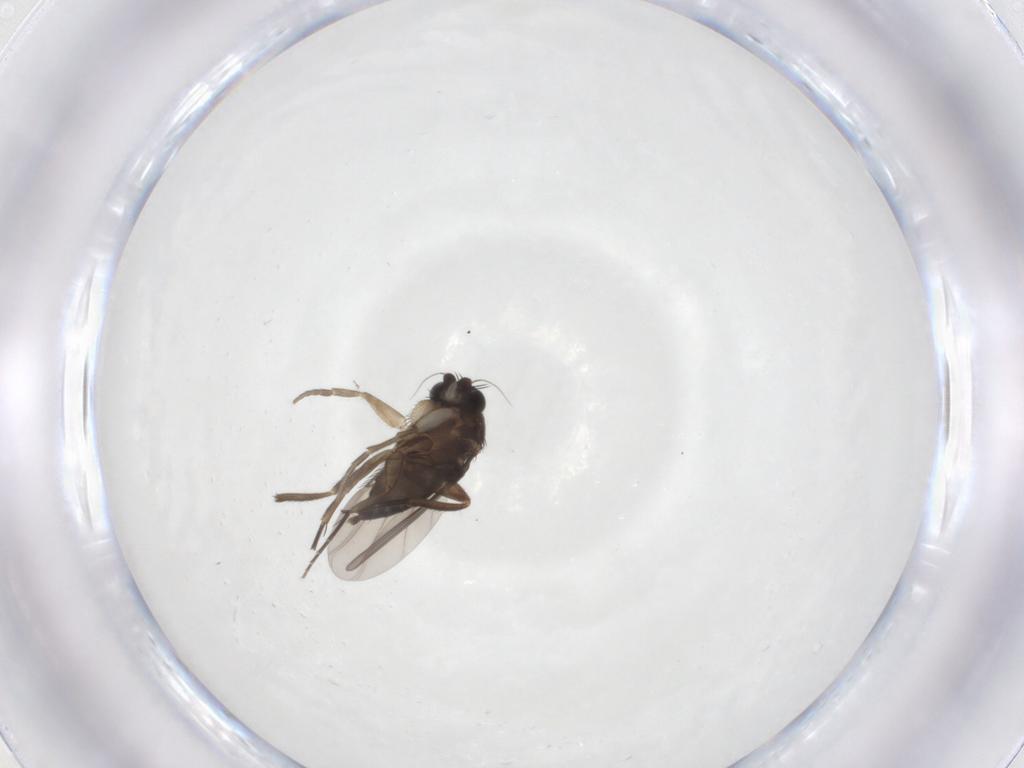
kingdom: Animalia
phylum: Arthropoda
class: Insecta
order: Diptera
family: Phoridae
